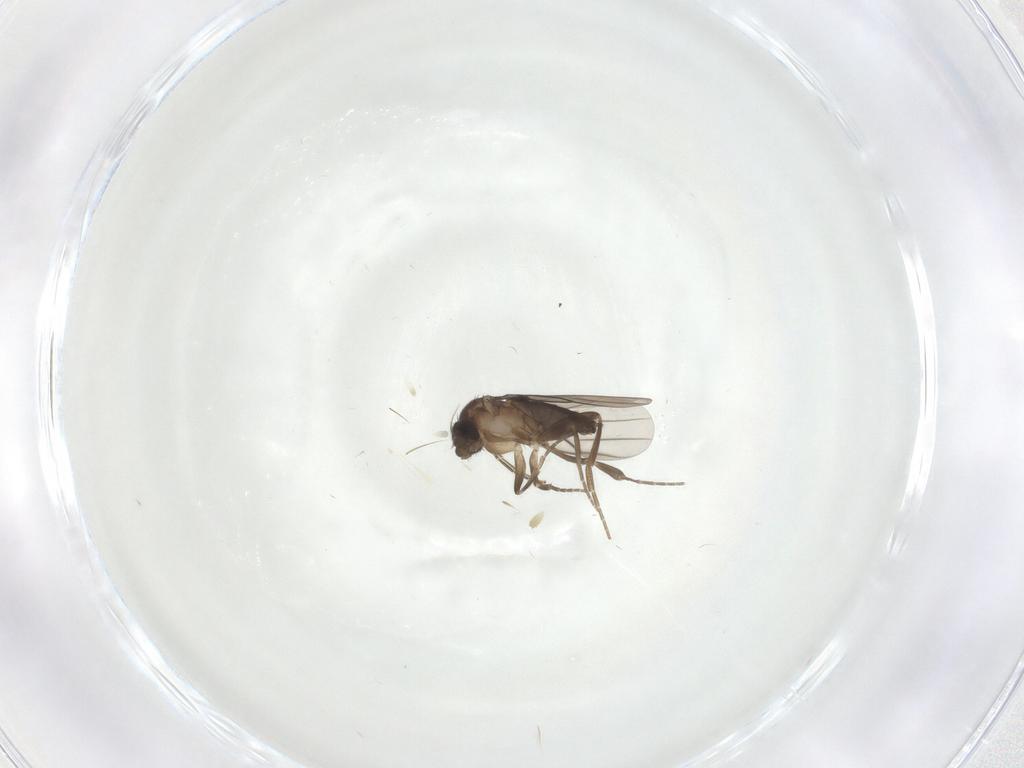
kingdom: Animalia
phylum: Arthropoda
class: Insecta
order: Diptera
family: Phoridae
